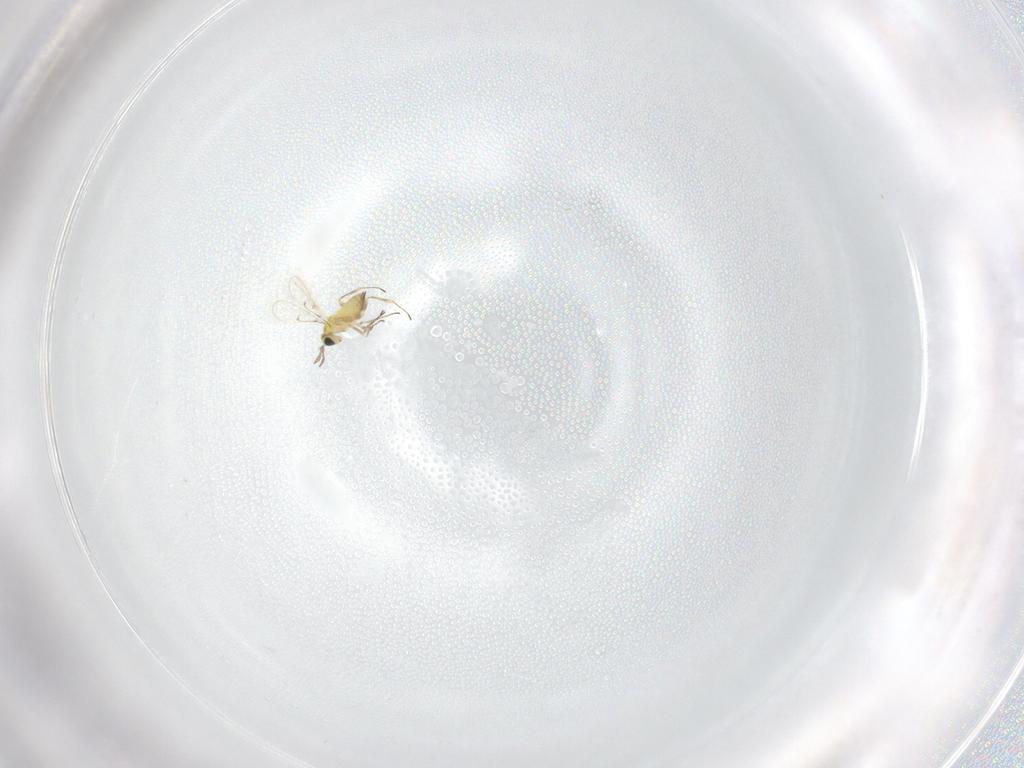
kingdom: Animalia
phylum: Arthropoda
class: Insecta
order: Hymenoptera
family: Trichogrammatidae
